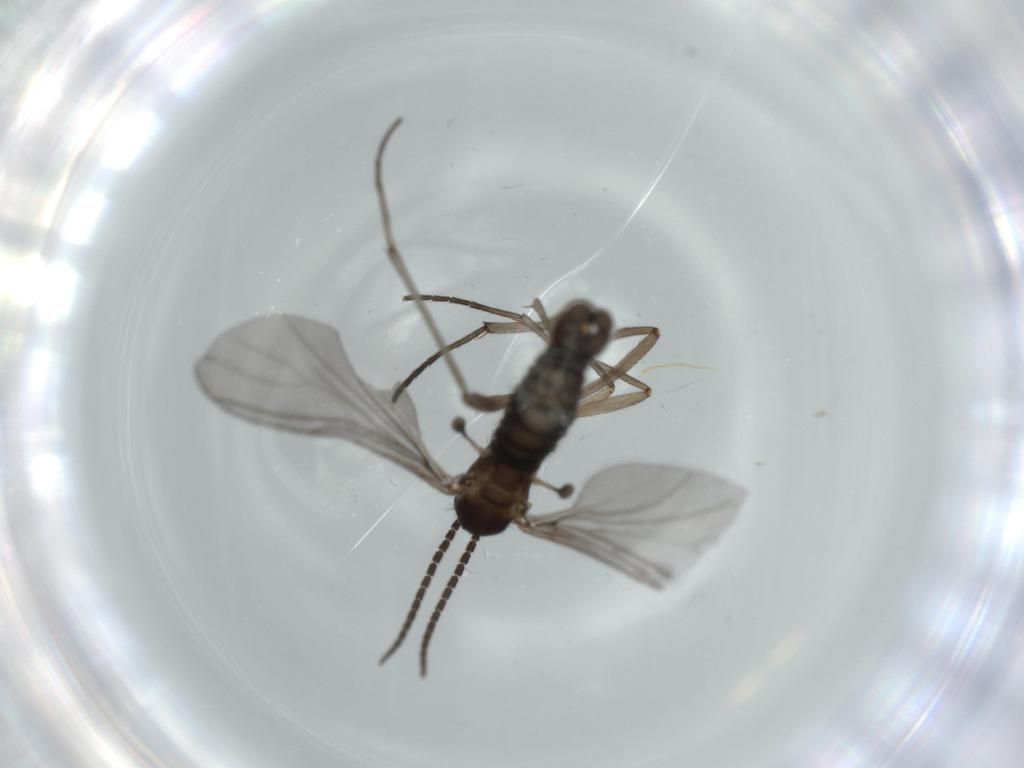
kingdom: Animalia
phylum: Arthropoda
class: Insecta
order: Diptera
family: Sciaridae
